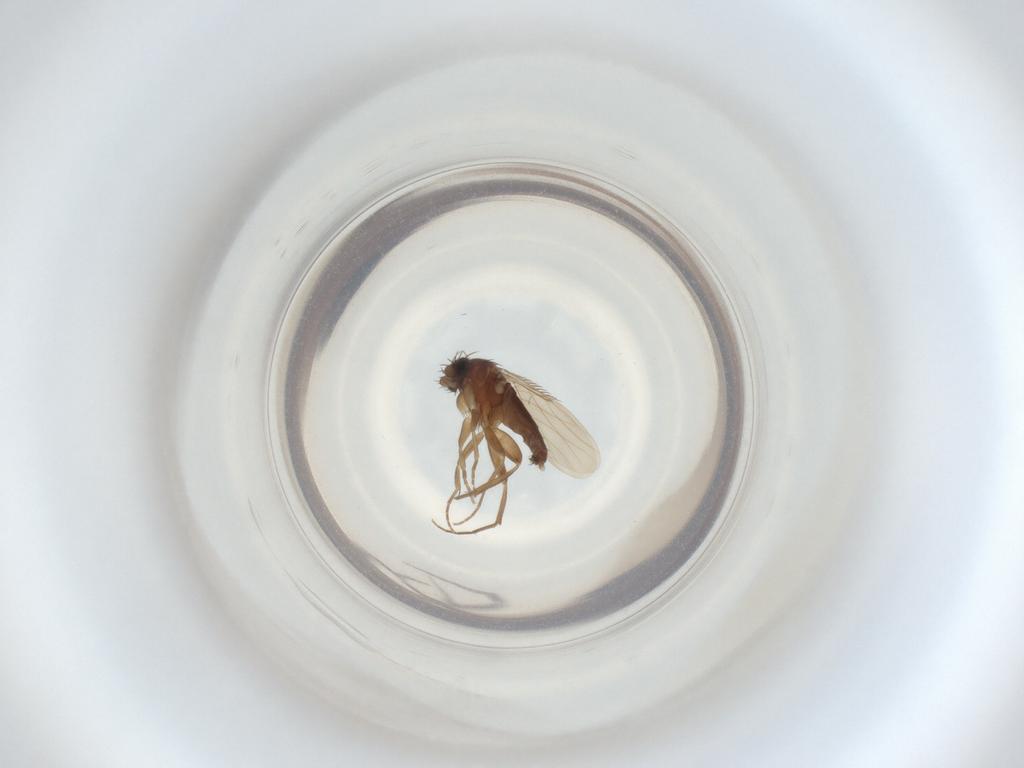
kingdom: Animalia
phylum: Arthropoda
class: Insecta
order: Diptera
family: Phoridae
